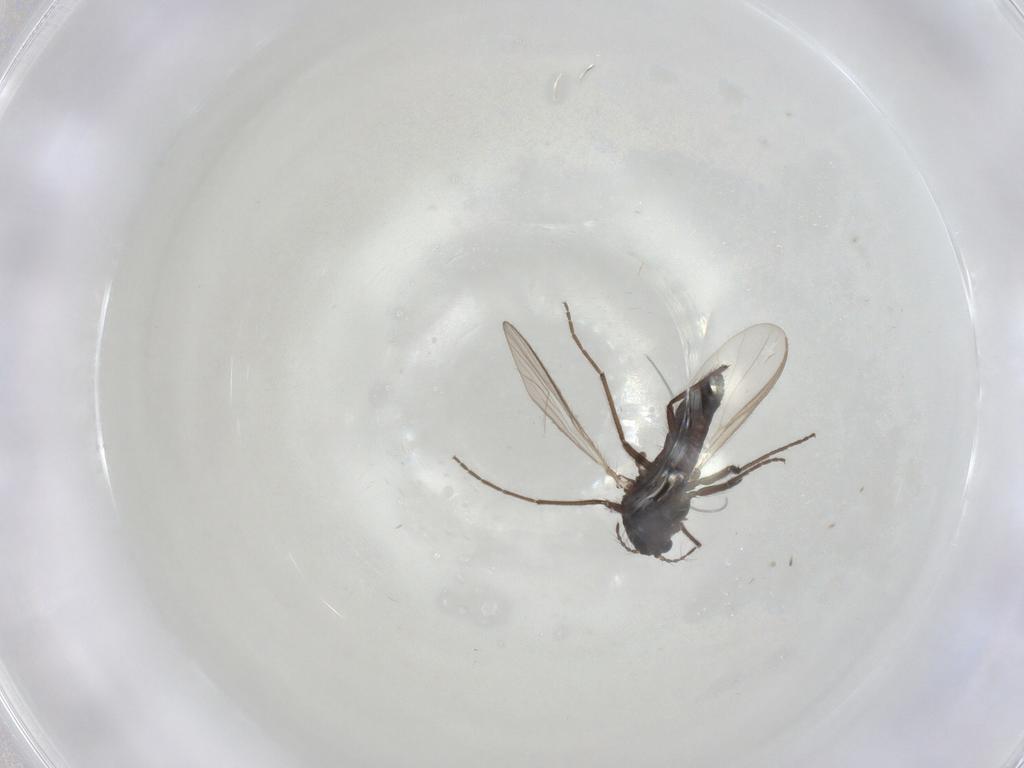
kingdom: Animalia
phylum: Arthropoda
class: Insecta
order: Diptera
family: Chironomidae
